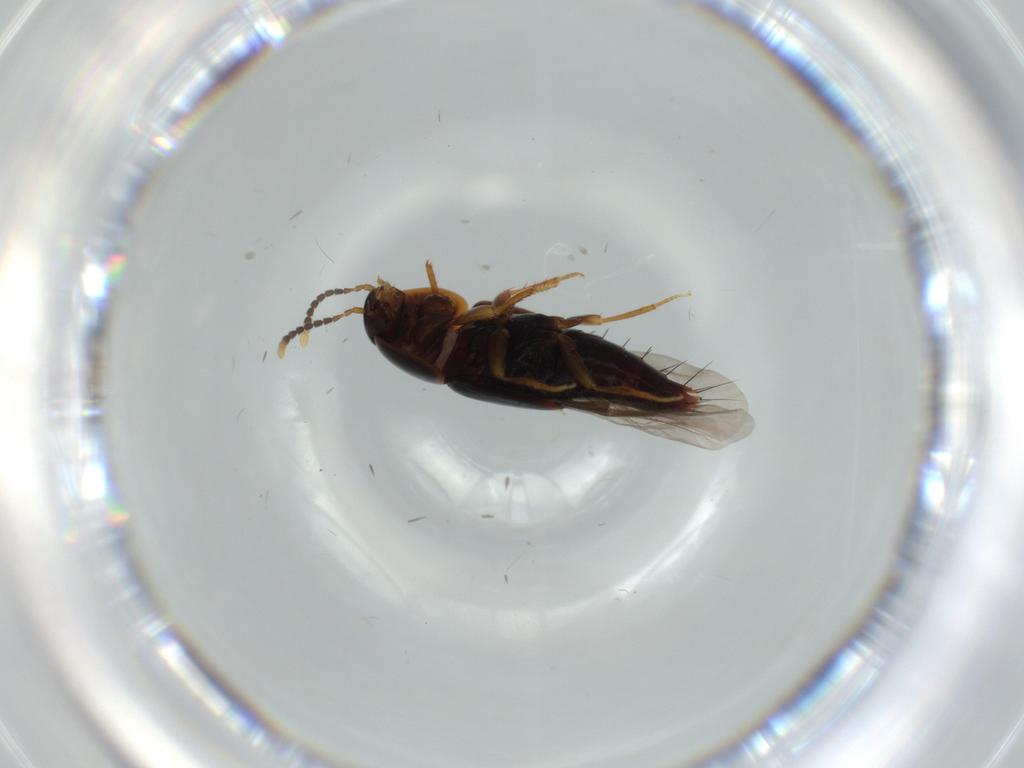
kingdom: Animalia
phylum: Arthropoda
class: Insecta
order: Coleoptera
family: Staphylinidae
